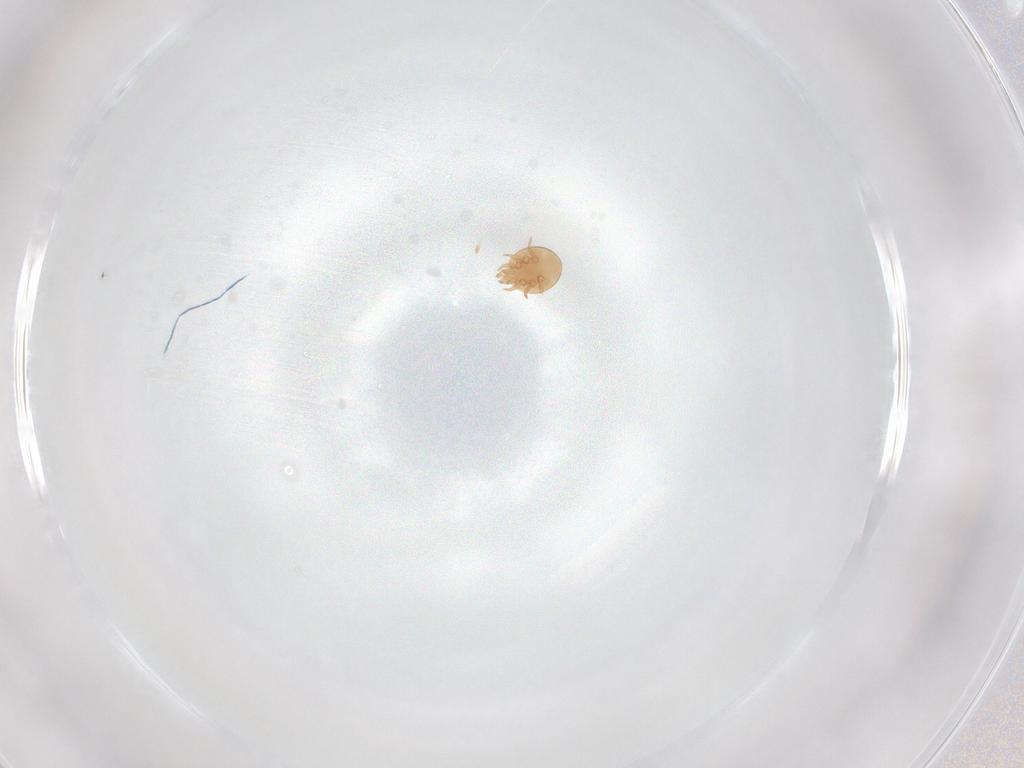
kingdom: Animalia
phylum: Arthropoda
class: Arachnida
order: Mesostigmata
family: Trematuridae
